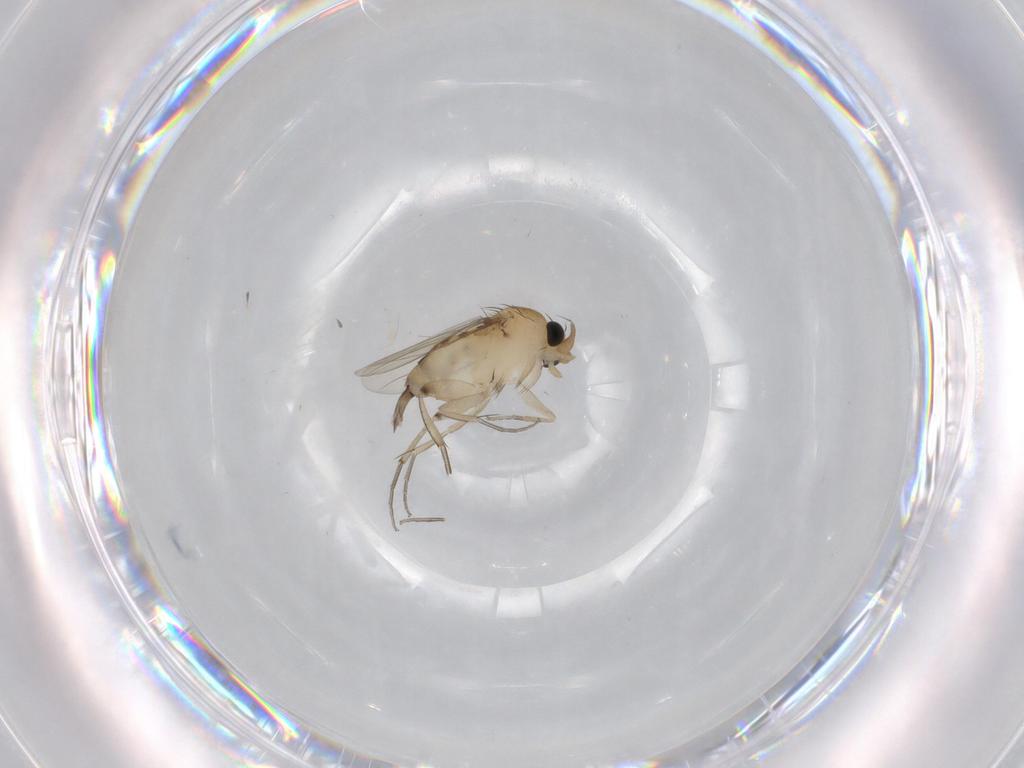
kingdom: Animalia
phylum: Arthropoda
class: Insecta
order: Diptera
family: Phoridae
